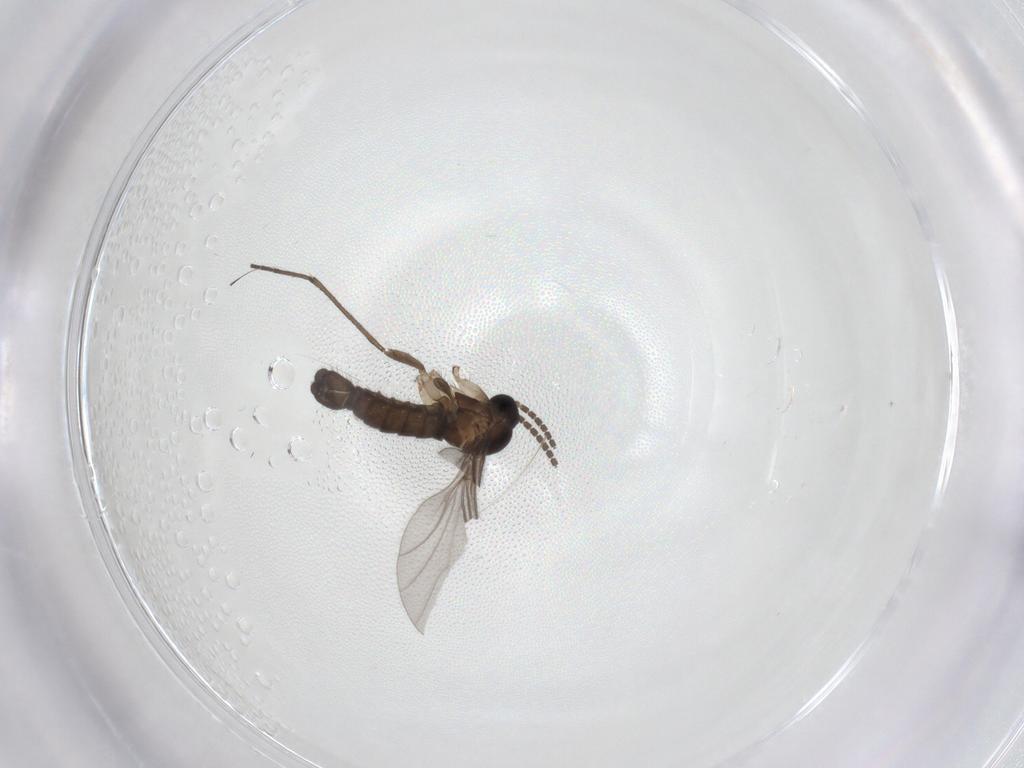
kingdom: Animalia
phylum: Arthropoda
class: Insecta
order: Diptera
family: Sciaridae
